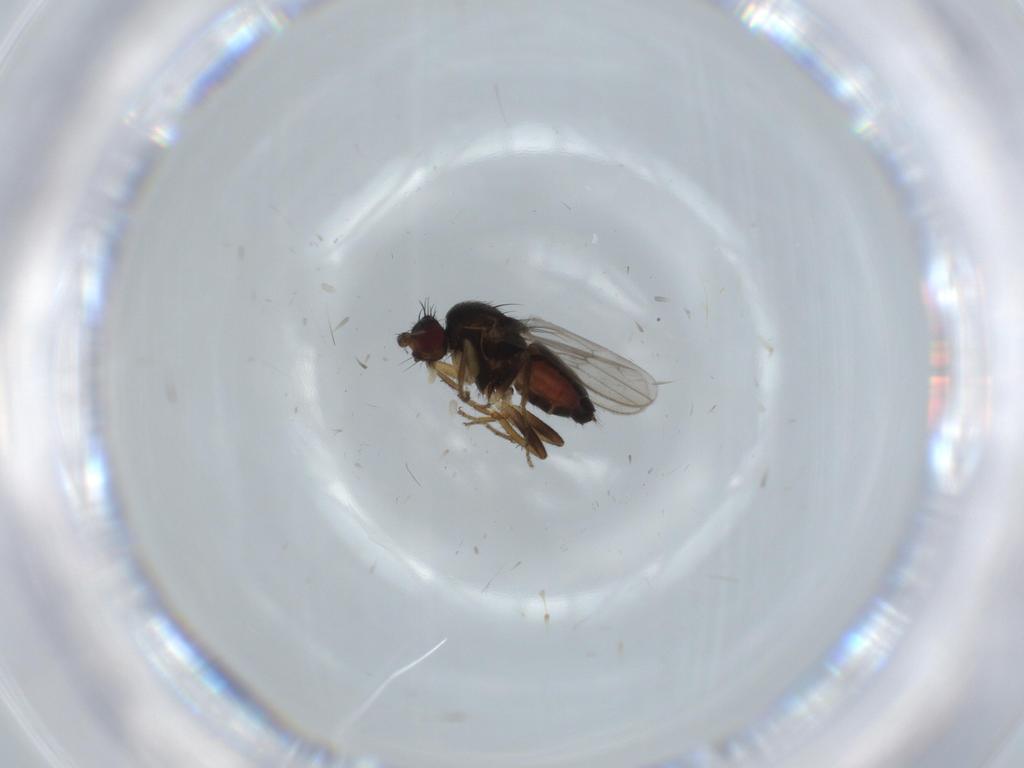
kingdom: Animalia
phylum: Arthropoda
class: Insecta
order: Diptera
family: Sphaeroceridae
